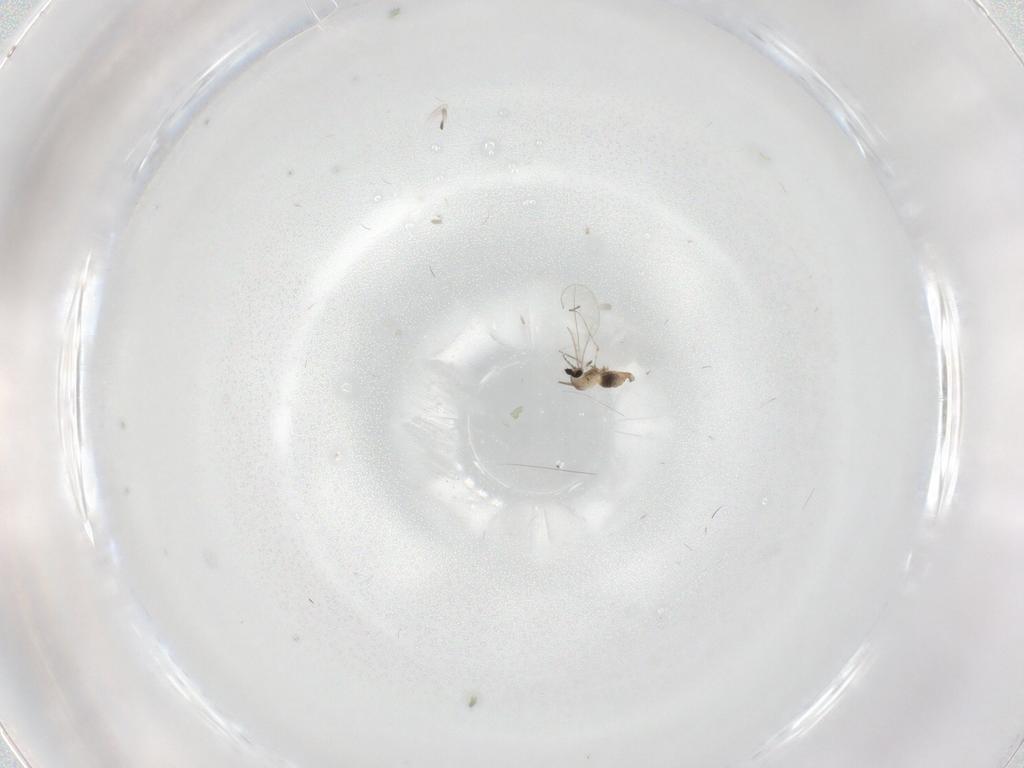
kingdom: Animalia
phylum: Arthropoda
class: Insecta
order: Diptera
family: Cecidomyiidae
